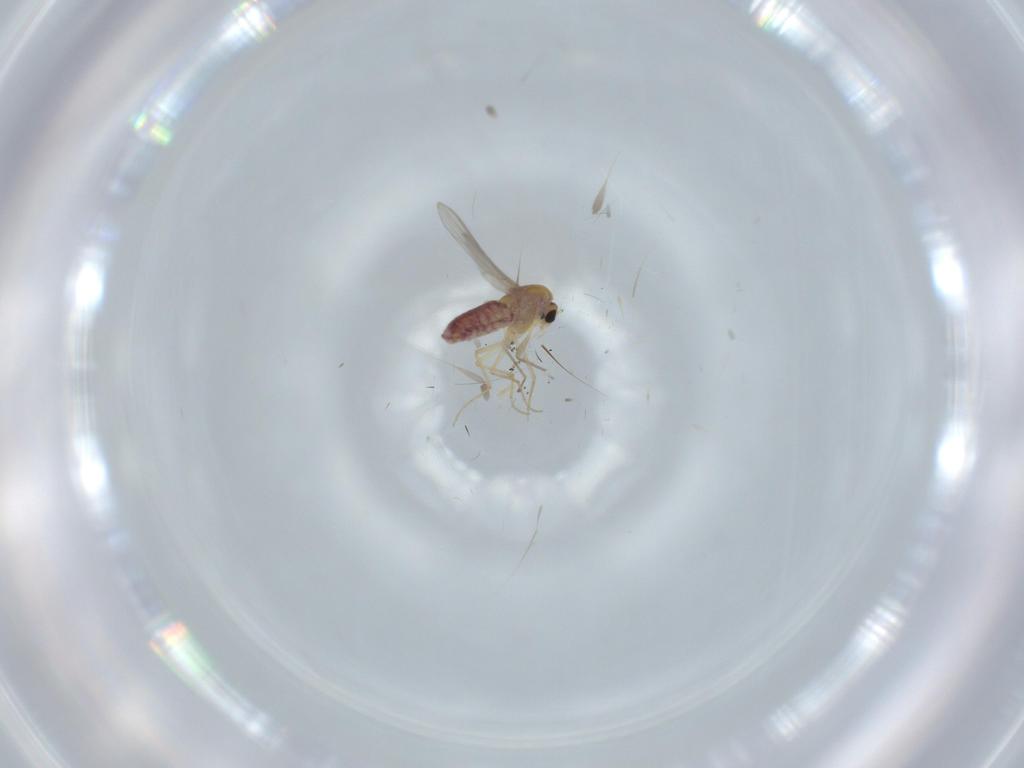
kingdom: Animalia
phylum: Arthropoda
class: Insecta
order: Diptera
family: Chironomidae
